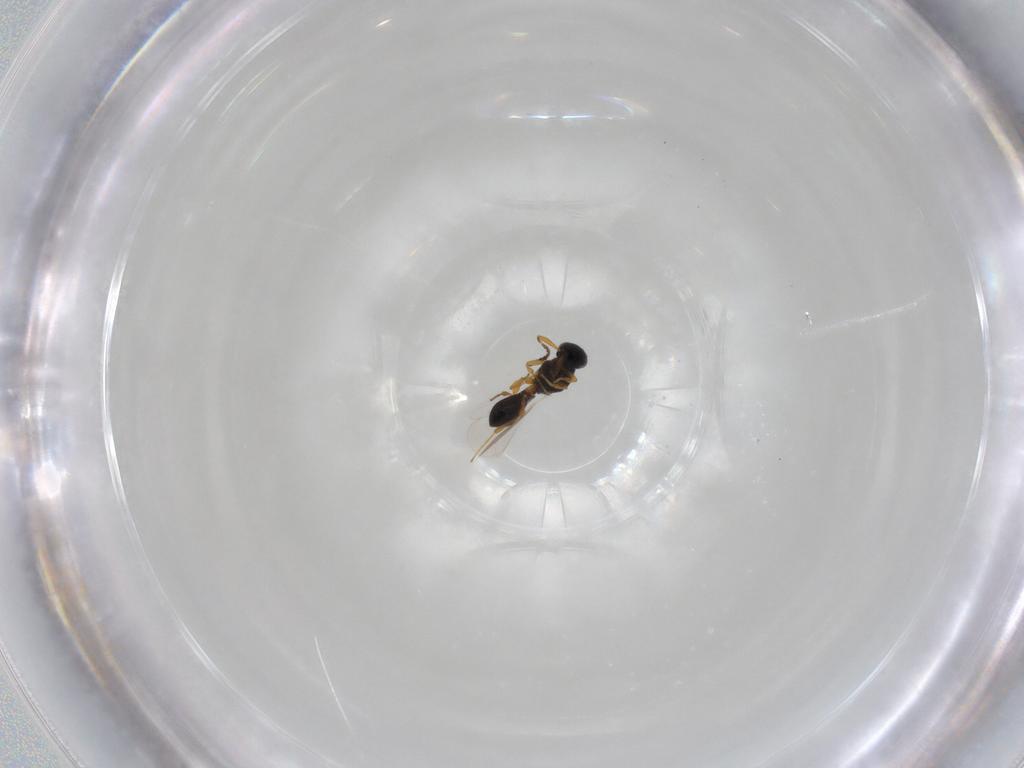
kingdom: Animalia
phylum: Arthropoda
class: Insecta
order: Hymenoptera
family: Platygastridae
